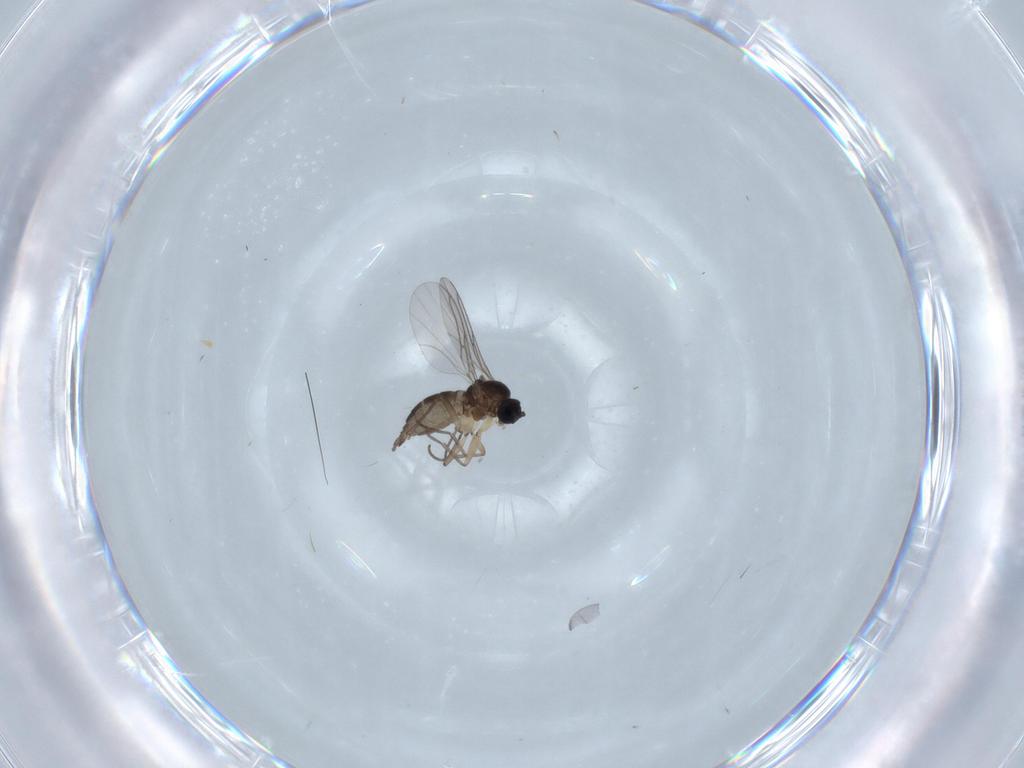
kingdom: Animalia
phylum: Arthropoda
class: Insecta
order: Diptera
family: Sciaridae
